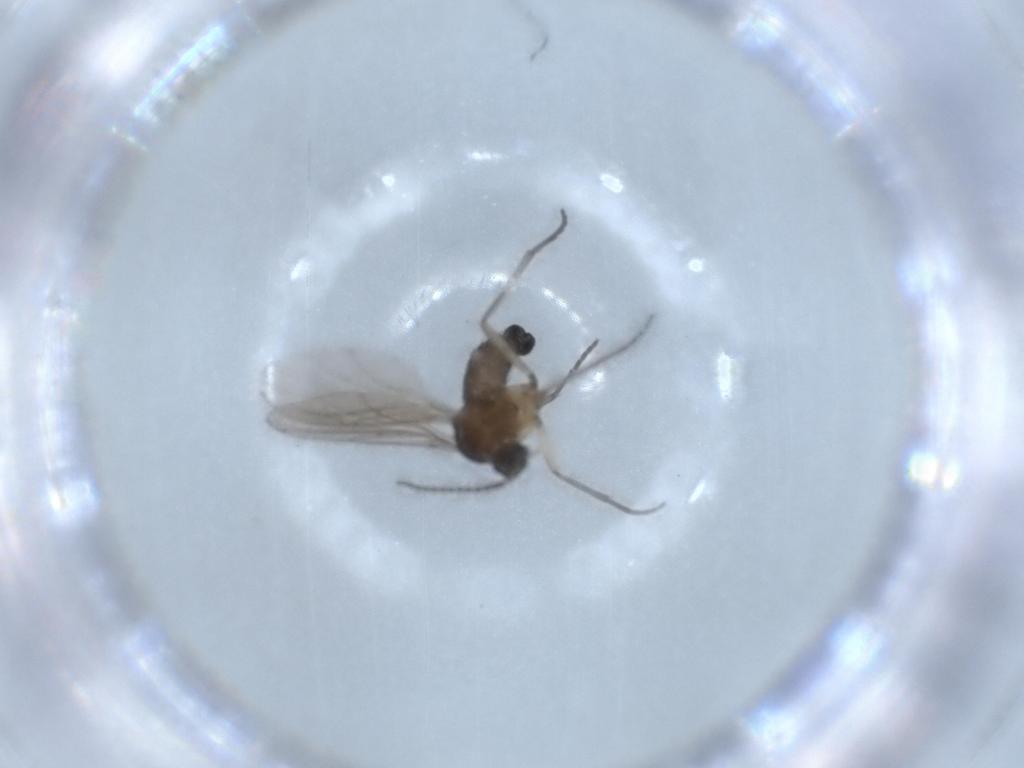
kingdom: Animalia
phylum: Arthropoda
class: Insecta
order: Diptera
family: Sciaridae
